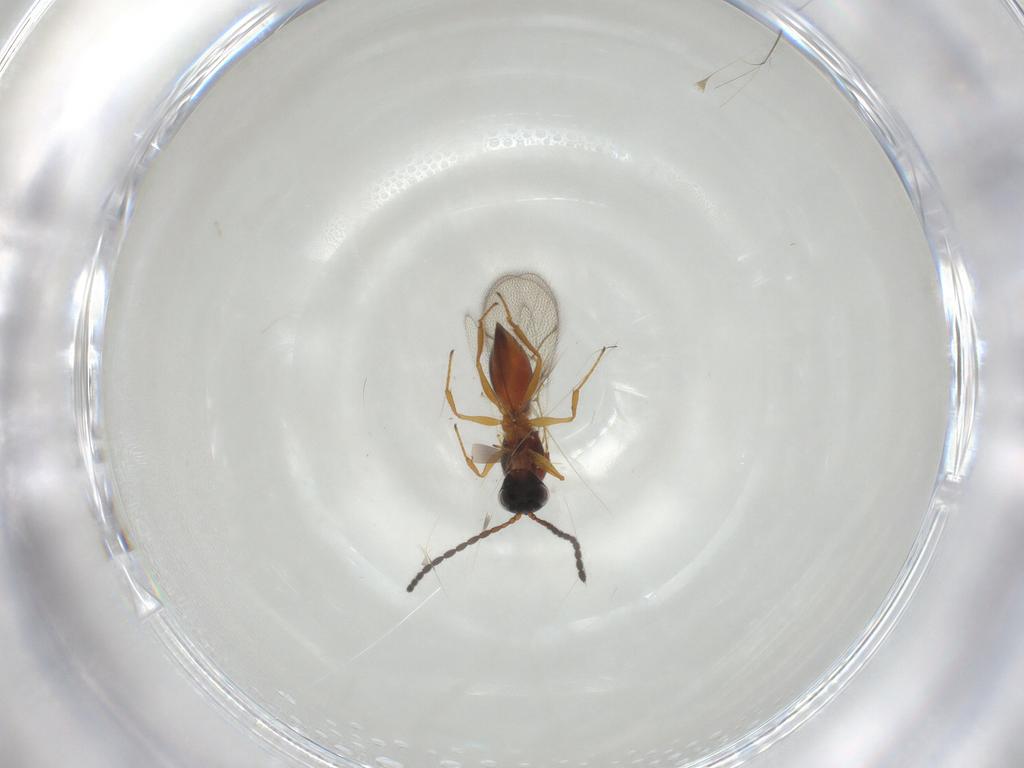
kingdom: Animalia
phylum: Arthropoda
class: Insecta
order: Hymenoptera
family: Figitidae
